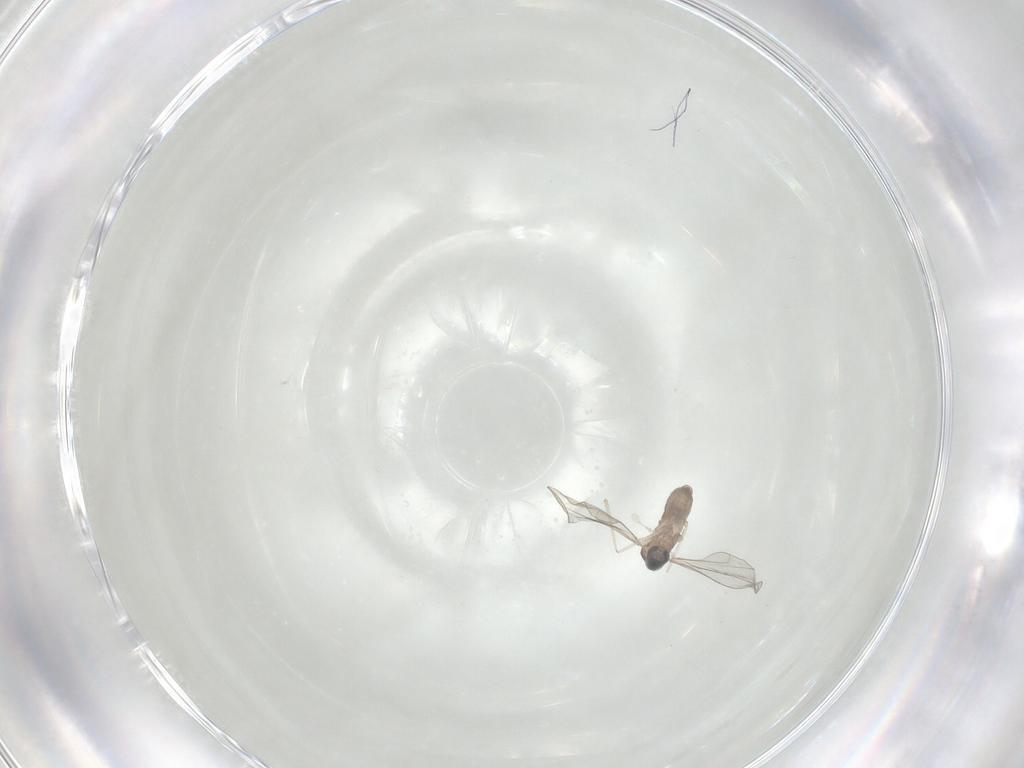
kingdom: Animalia
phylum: Arthropoda
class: Insecta
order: Diptera
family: Cecidomyiidae
